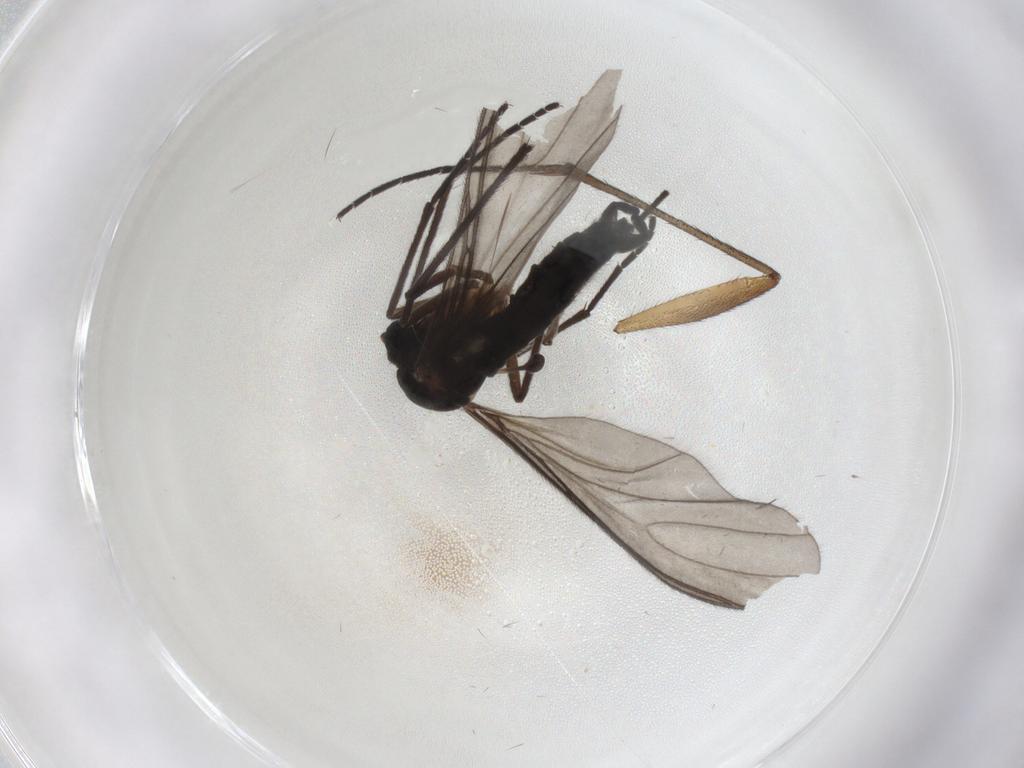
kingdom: Animalia
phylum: Arthropoda
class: Insecta
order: Diptera
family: Sciaridae
